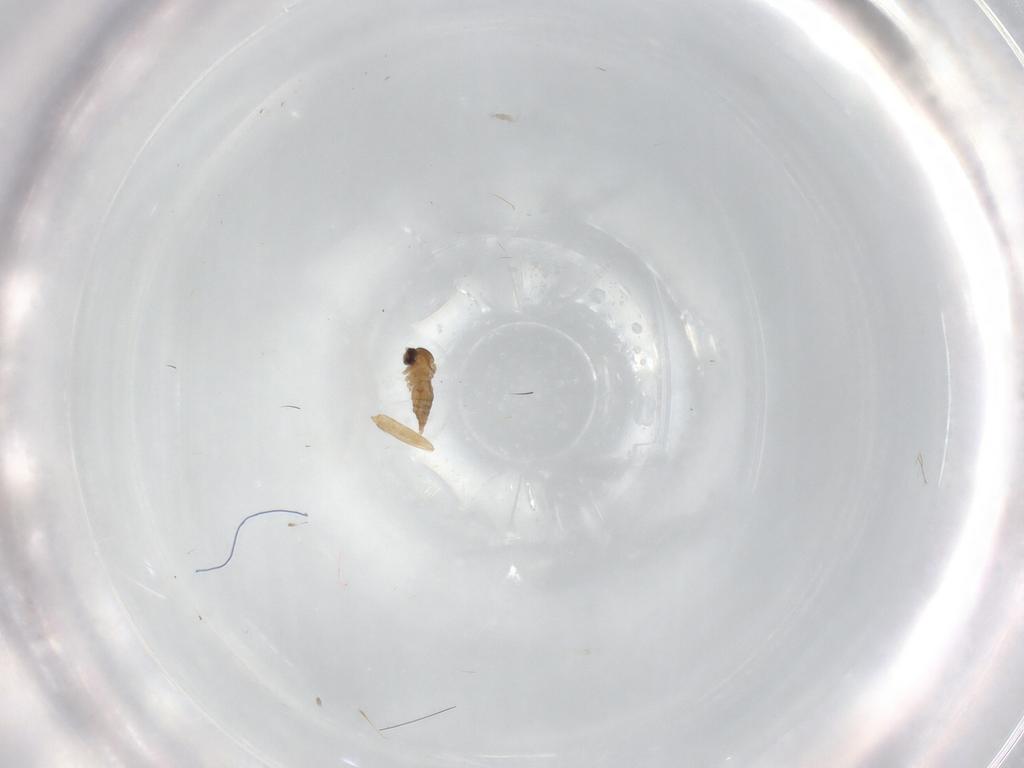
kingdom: Animalia
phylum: Arthropoda
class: Insecta
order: Diptera
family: Cecidomyiidae
